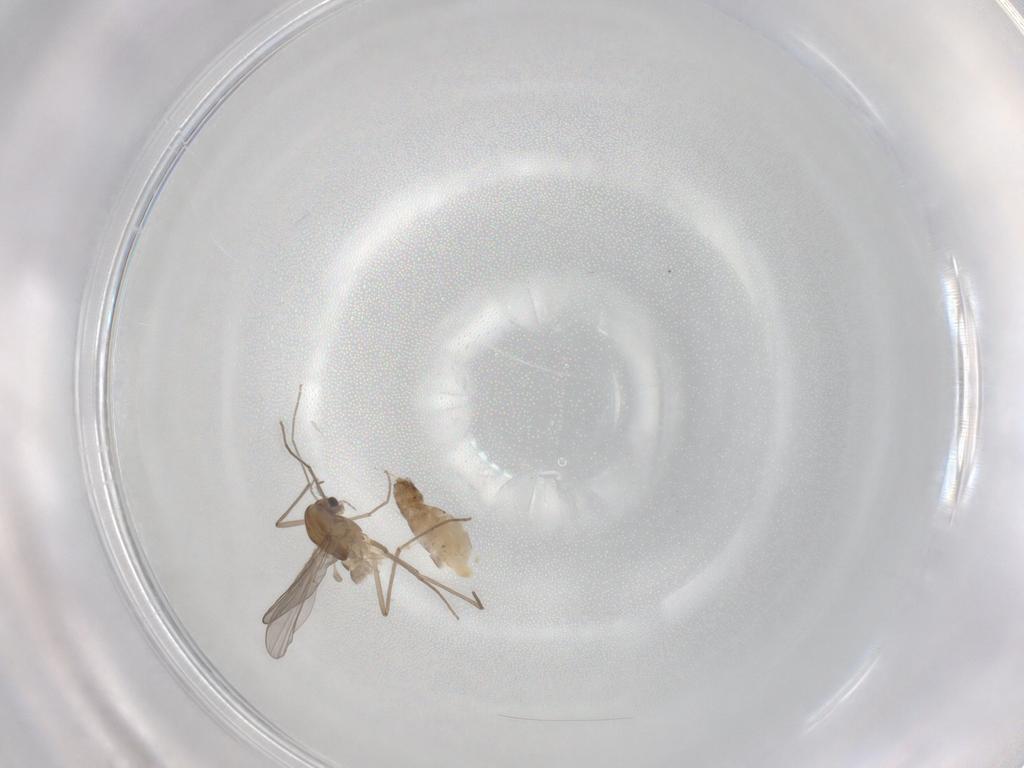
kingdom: Animalia
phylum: Arthropoda
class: Insecta
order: Diptera
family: Chironomidae
